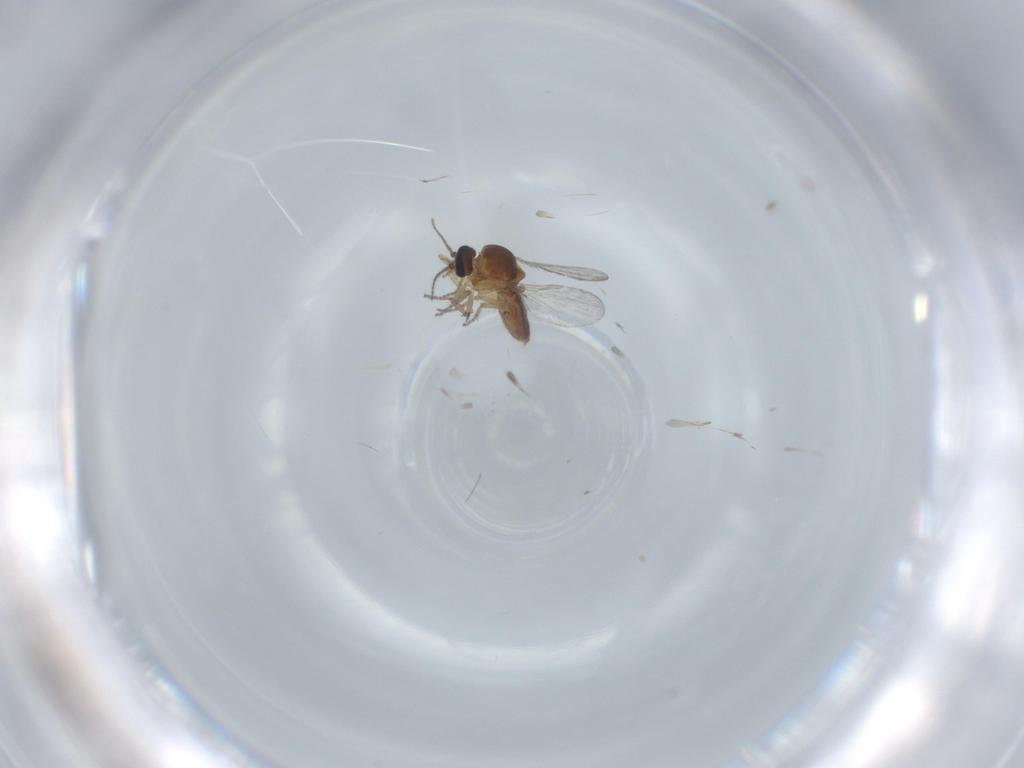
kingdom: Animalia
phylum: Arthropoda
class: Insecta
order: Diptera
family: Ceratopogonidae
